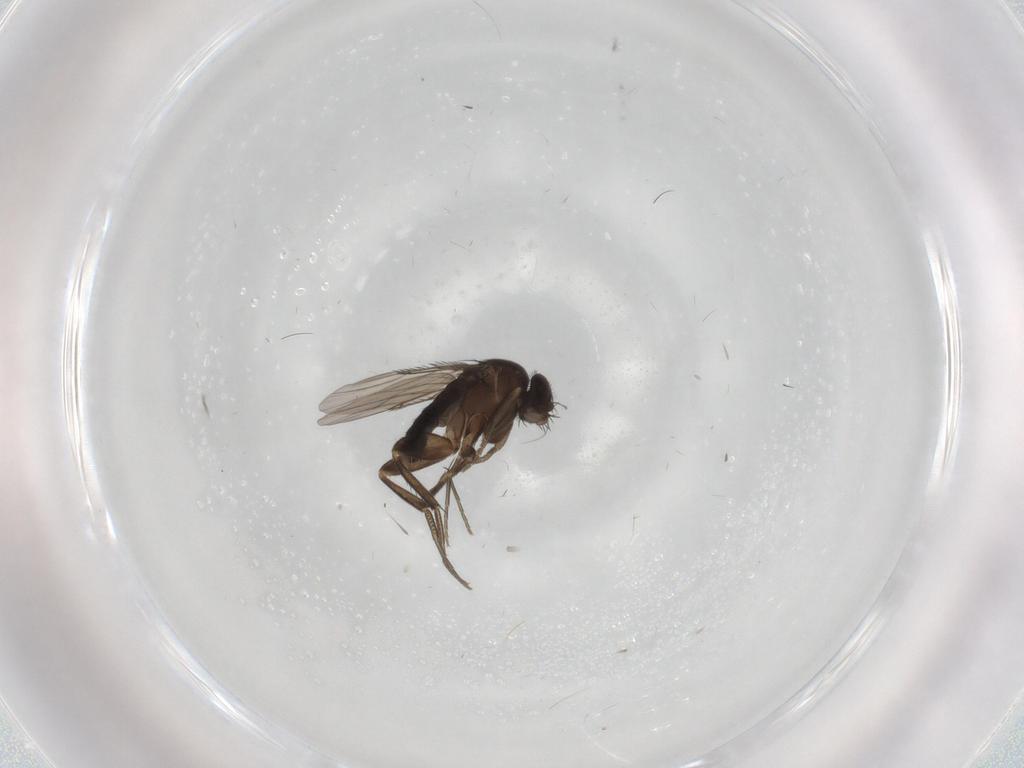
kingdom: Animalia
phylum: Arthropoda
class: Insecta
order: Diptera
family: Phoridae
